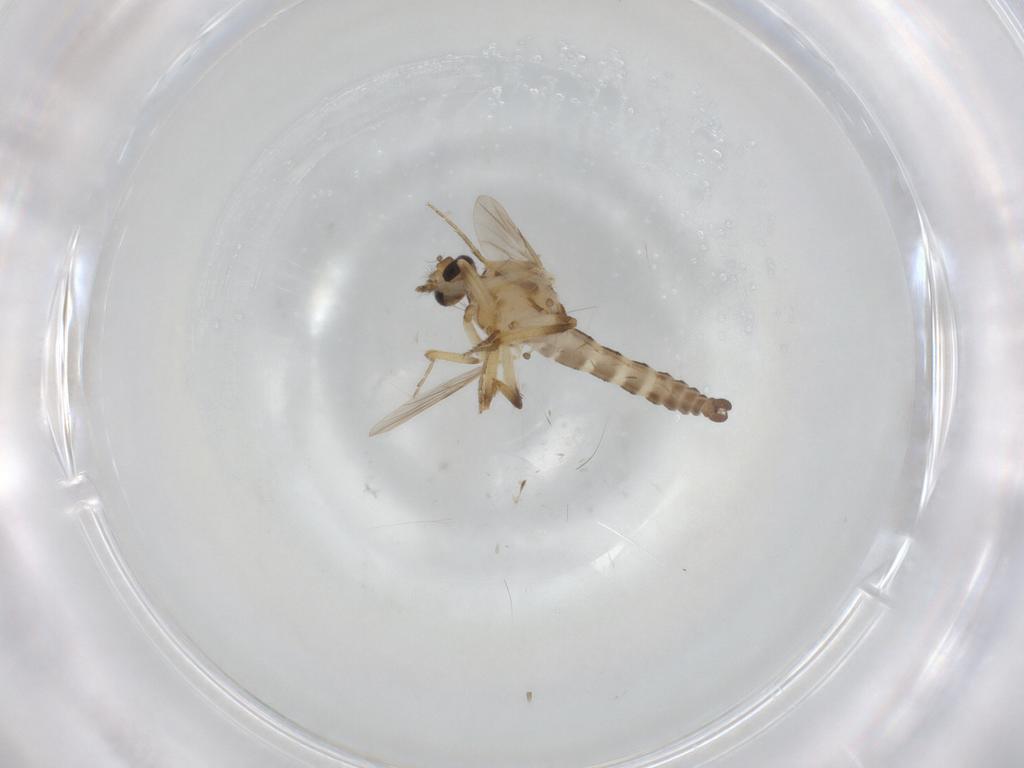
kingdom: Animalia
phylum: Arthropoda
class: Insecta
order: Diptera
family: Ceratopogonidae
